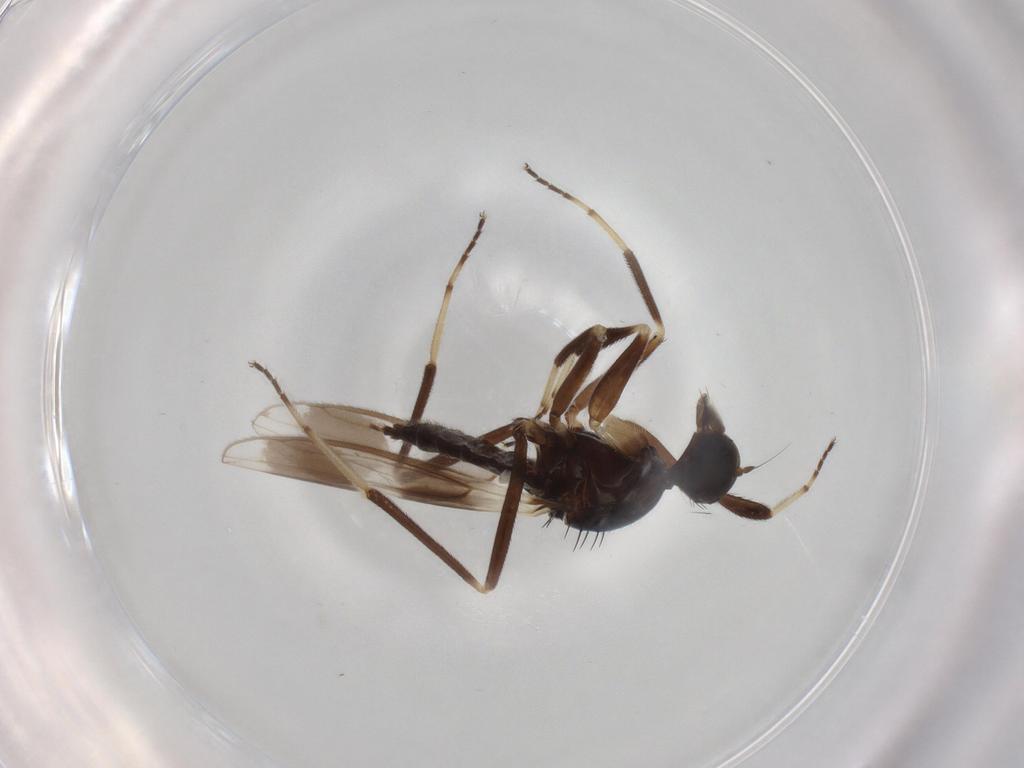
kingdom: Animalia
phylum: Arthropoda
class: Insecta
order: Diptera
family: Hybotidae
